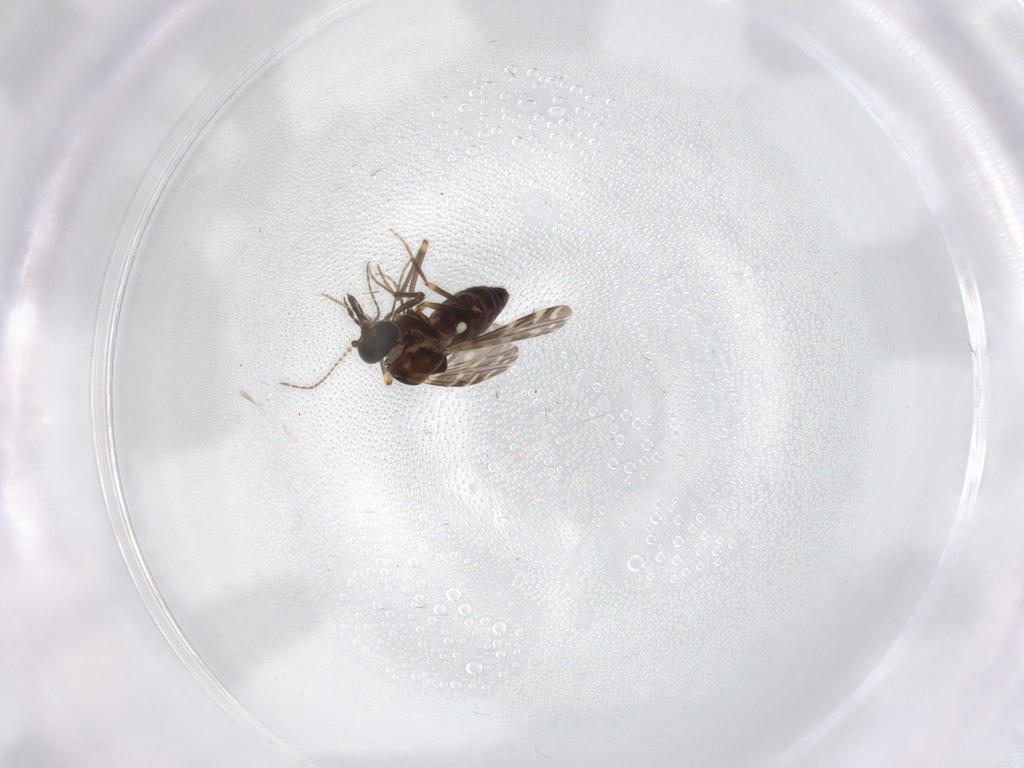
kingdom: Animalia
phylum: Arthropoda
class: Insecta
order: Diptera
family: Ceratopogonidae
